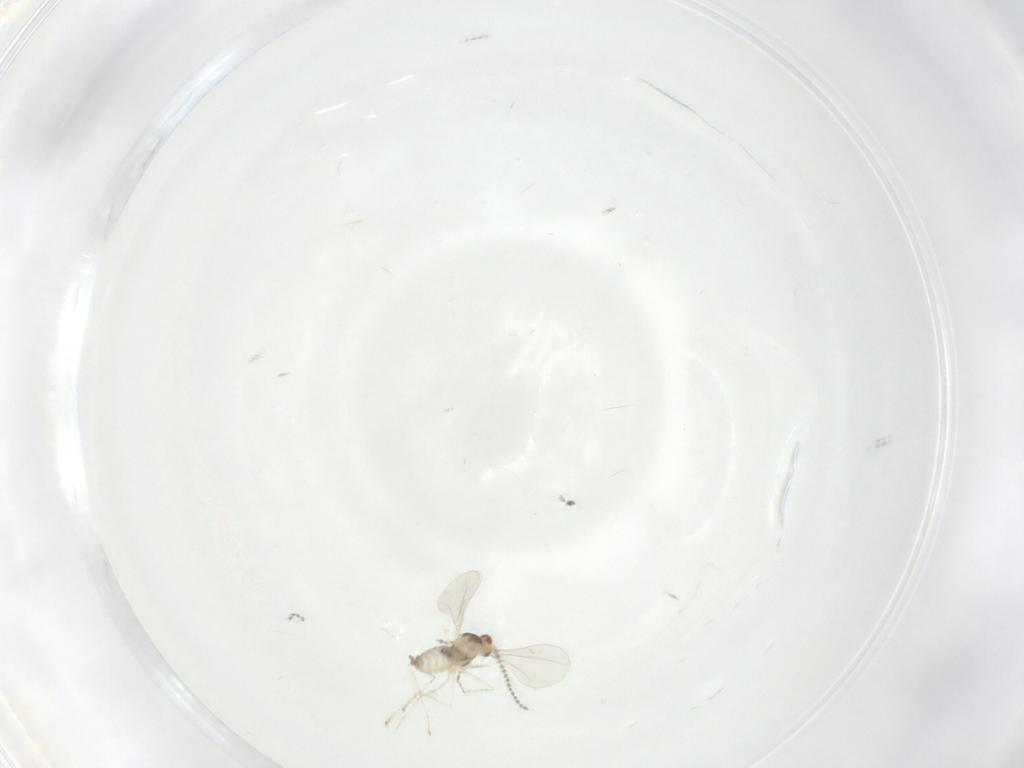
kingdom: Animalia
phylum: Arthropoda
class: Insecta
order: Diptera
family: Cecidomyiidae
